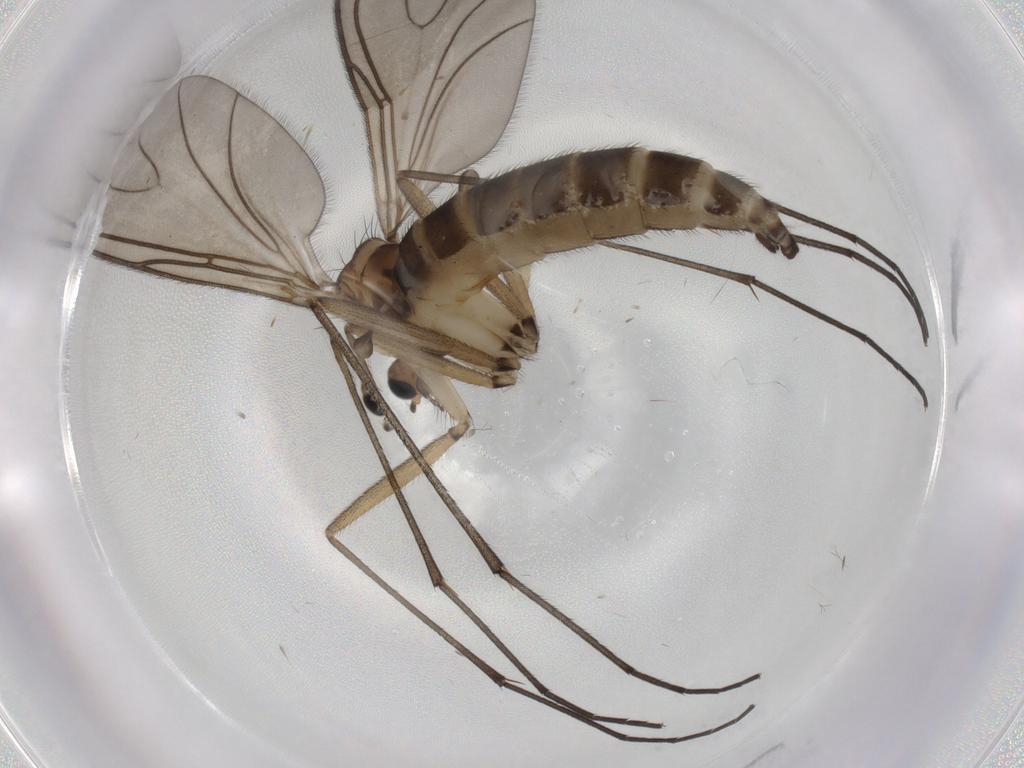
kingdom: Animalia
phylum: Arthropoda
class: Insecta
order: Diptera
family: Sciaridae
